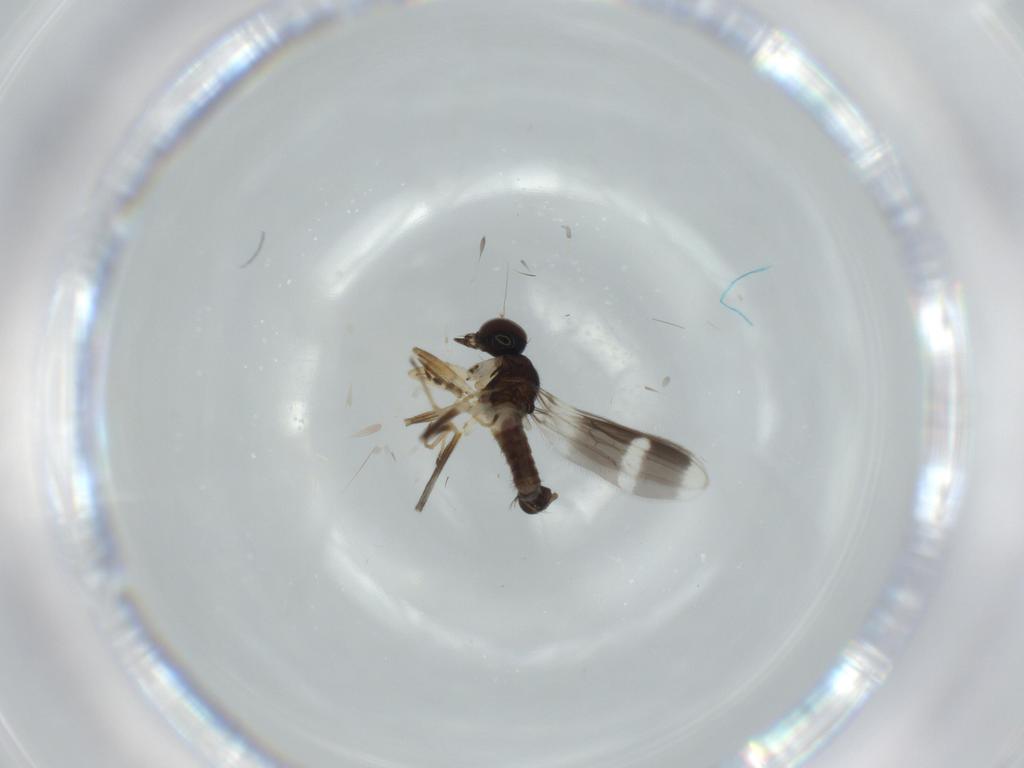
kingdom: Animalia
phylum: Arthropoda
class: Insecta
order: Diptera
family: Hybotidae
